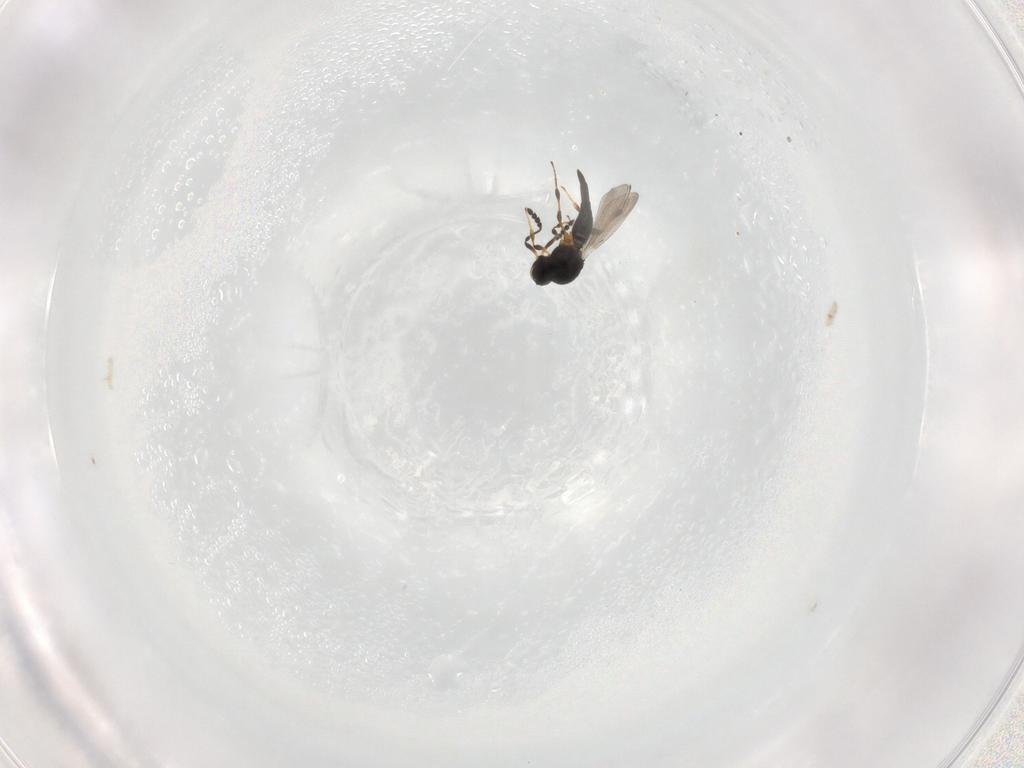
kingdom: Animalia
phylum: Arthropoda
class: Insecta
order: Hymenoptera
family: Platygastridae
